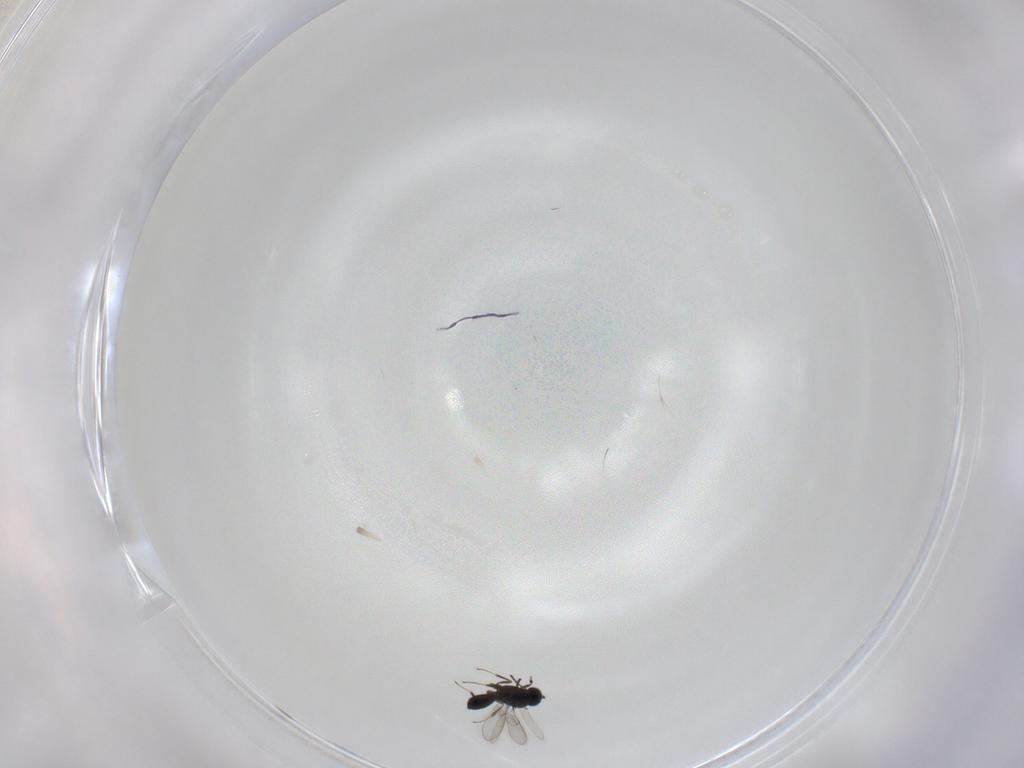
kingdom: Animalia
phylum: Arthropoda
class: Insecta
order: Hymenoptera
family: Scelionidae
